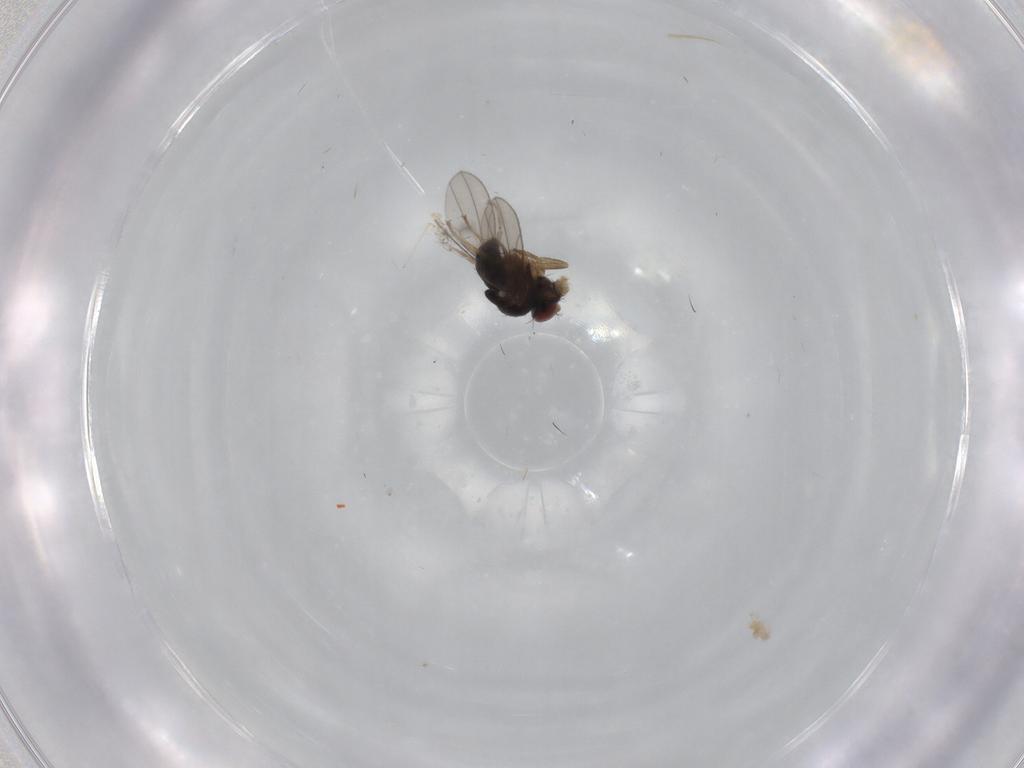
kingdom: Animalia
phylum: Arthropoda
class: Insecta
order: Diptera
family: Ephydridae
